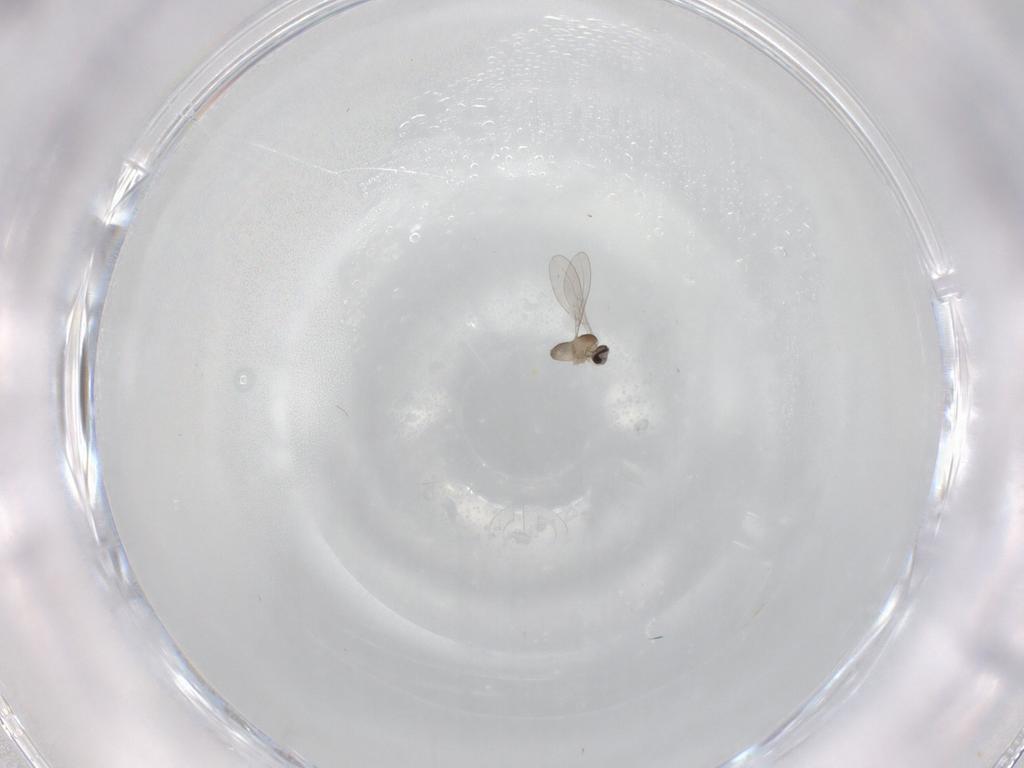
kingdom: Animalia
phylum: Arthropoda
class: Insecta
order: Diptera
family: Cecidomyiidae
